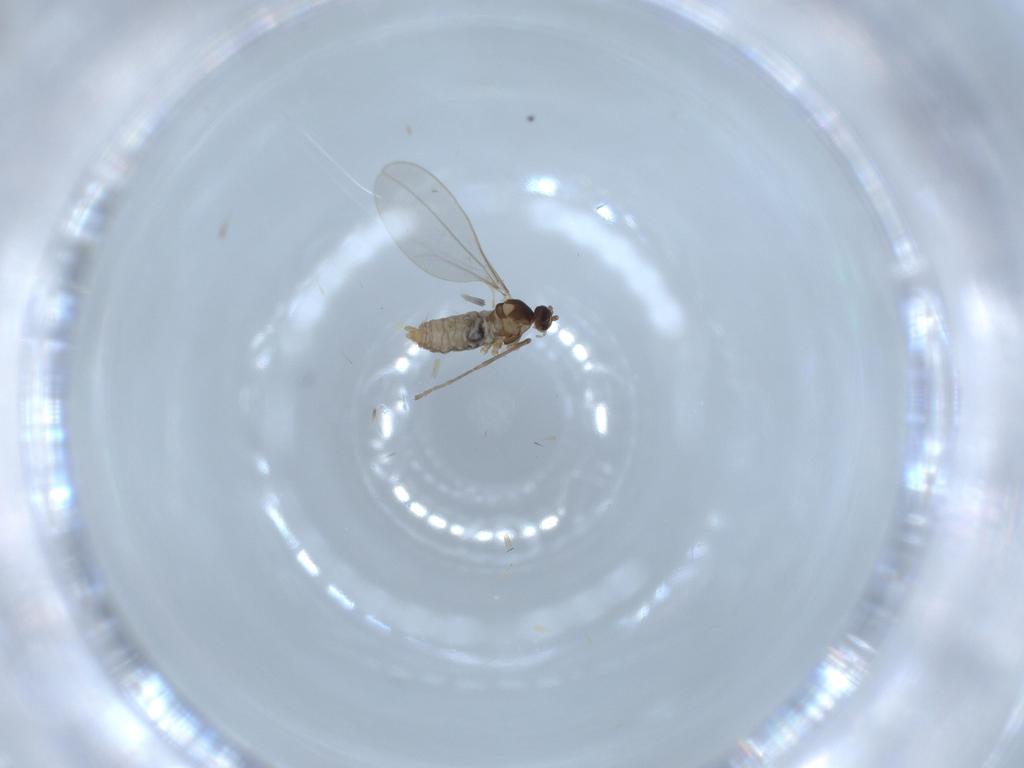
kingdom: Animalia
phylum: Arthropoda
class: Insecta
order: Diptera
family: Cecidomyiidae
